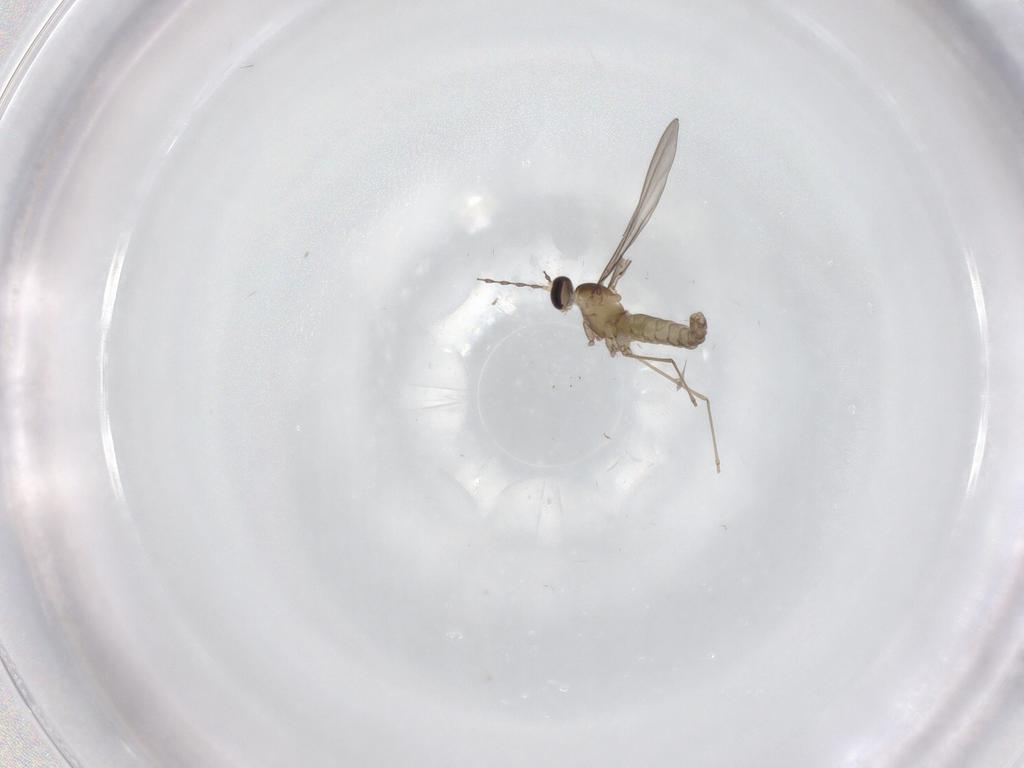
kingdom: Animalia
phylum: Arthropoda
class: Insecta
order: Diptera
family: Cecidomyiidae
